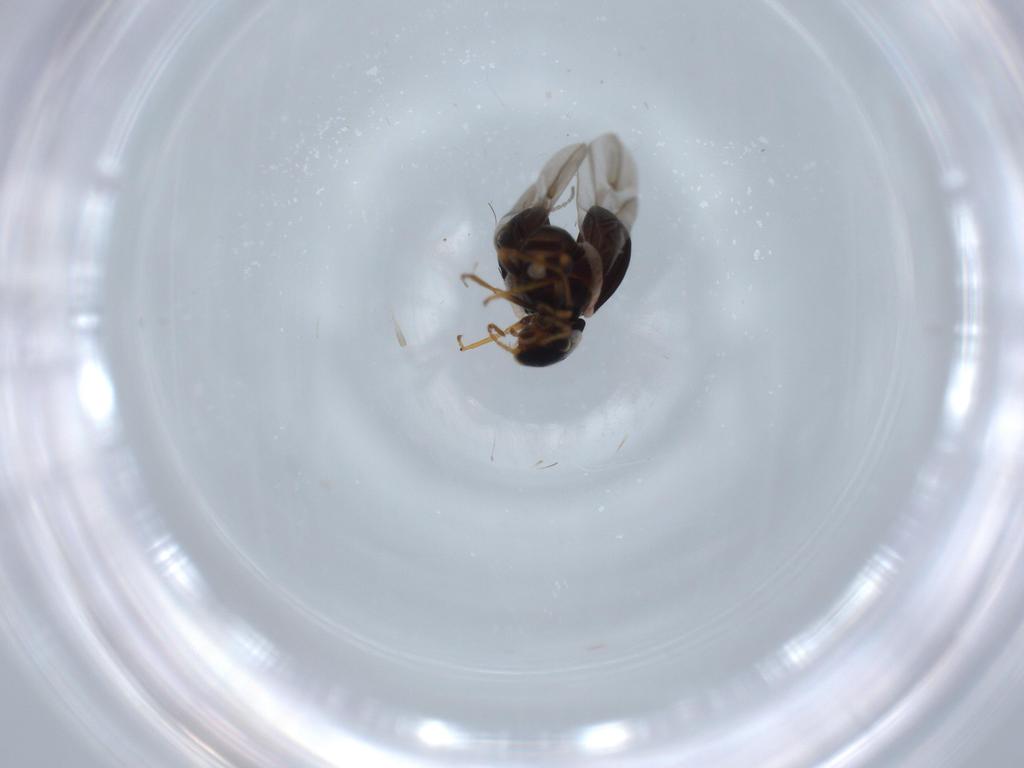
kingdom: Animalia
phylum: Arthropoda
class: Insecta
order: Coleoptera
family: Melyridae
